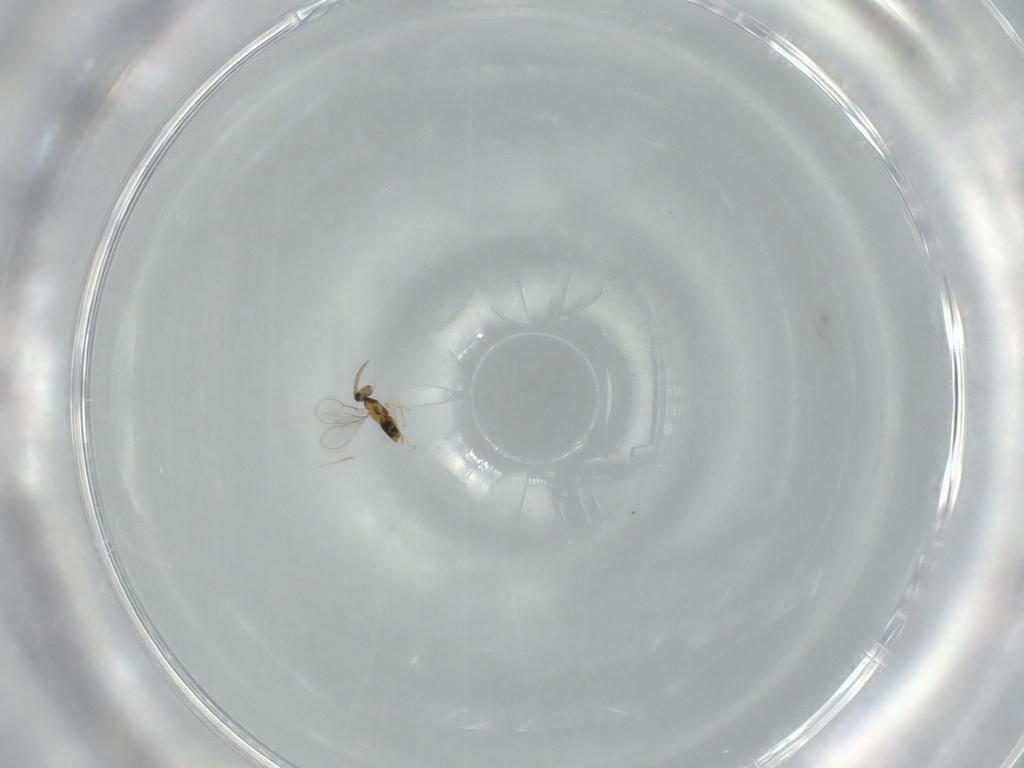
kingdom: Animalia
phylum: Arthropoda
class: Insecta
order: Hymenoptera
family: Aphelinidae
